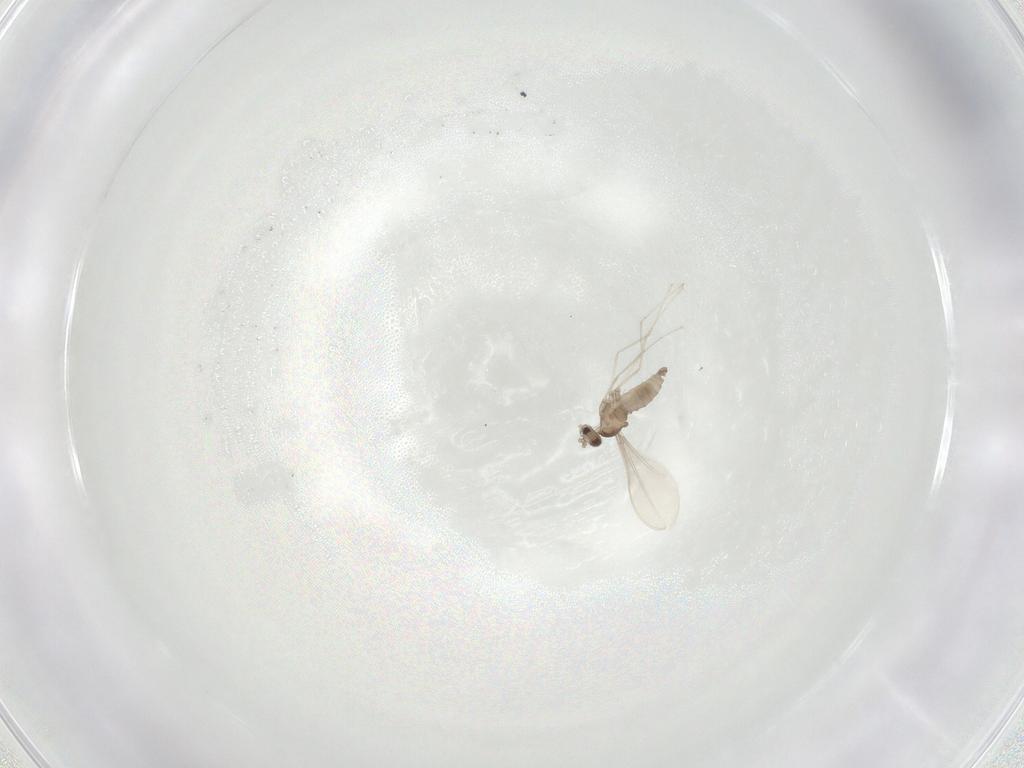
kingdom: Animalia
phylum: Arthropoda
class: Insecta
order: Diptera
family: Cecidomyiidae
